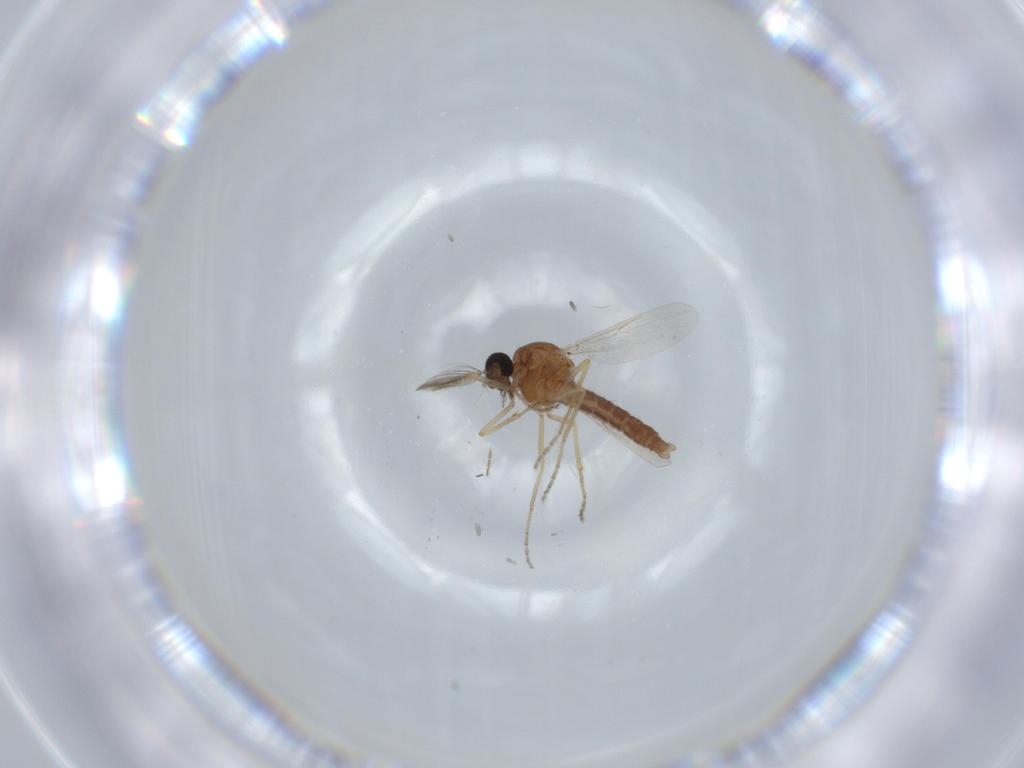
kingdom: Animalia
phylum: Arthropoda
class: Insecta
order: Diptera
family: Ceratopogonidae
